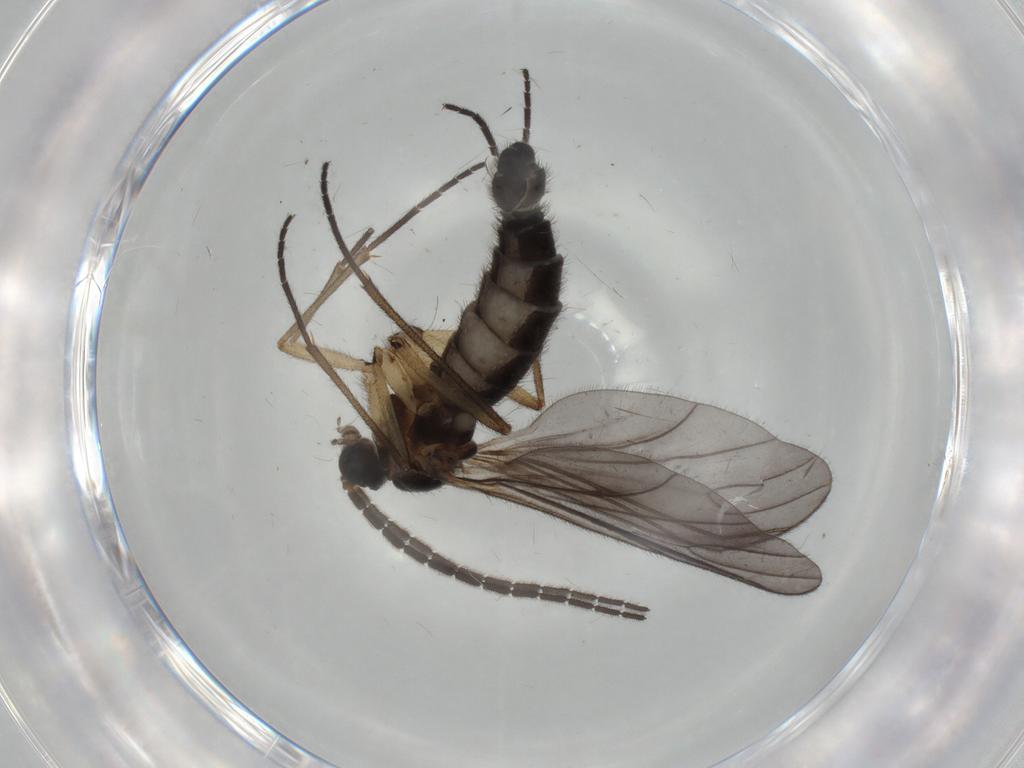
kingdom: Animalia
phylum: Arthropoda
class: Insecta
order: Diptera
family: Sciaridae
